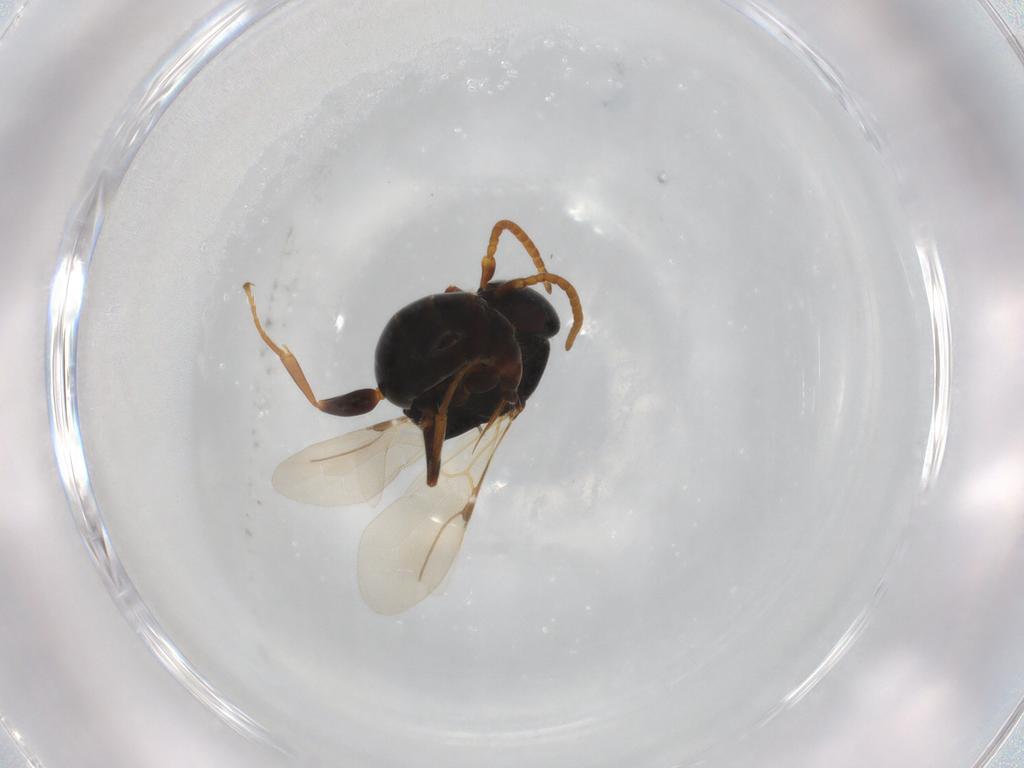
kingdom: Animalia
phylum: Arthropoda
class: Insecta
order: Hymenoptera
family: Bethylidae
